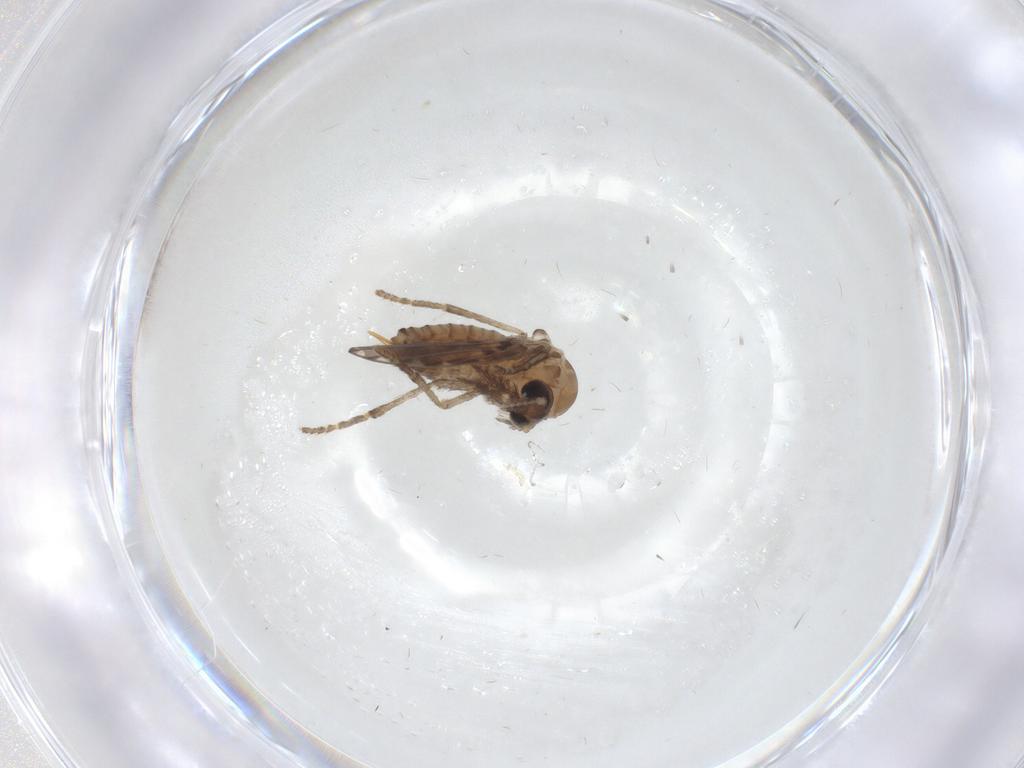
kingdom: Animalia
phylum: Arthropoda
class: Insecta
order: Diptera
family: Psychodidae
